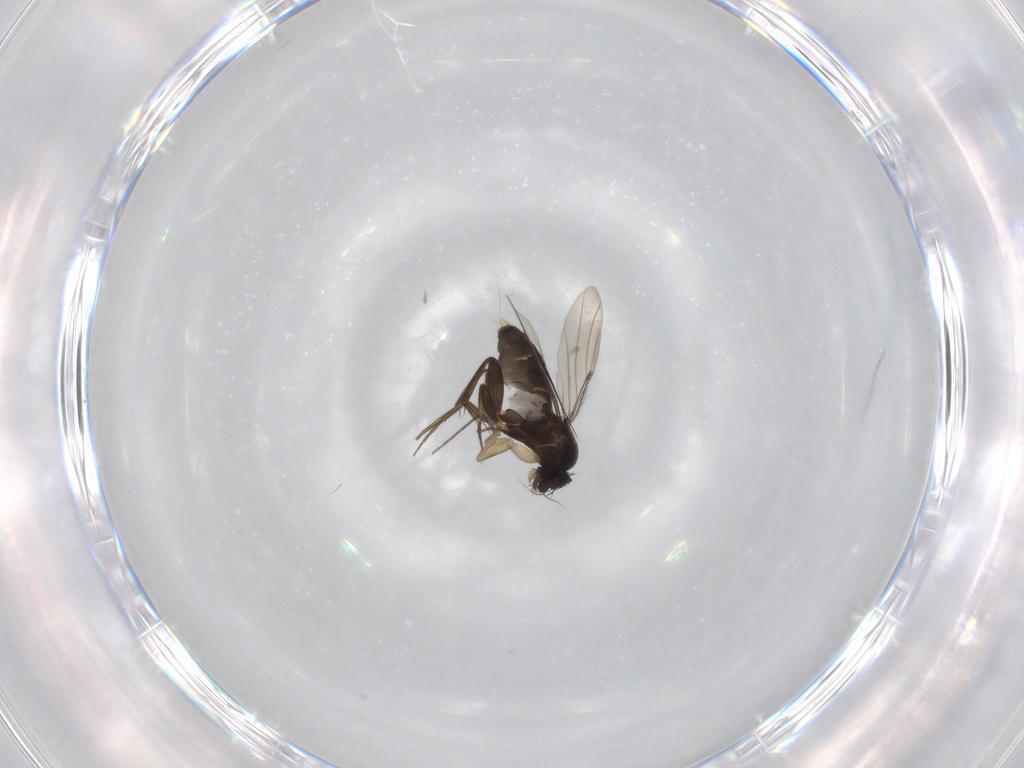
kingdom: Animalia
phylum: Arthropoda
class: Insecta
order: Diptera
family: Phoridae
